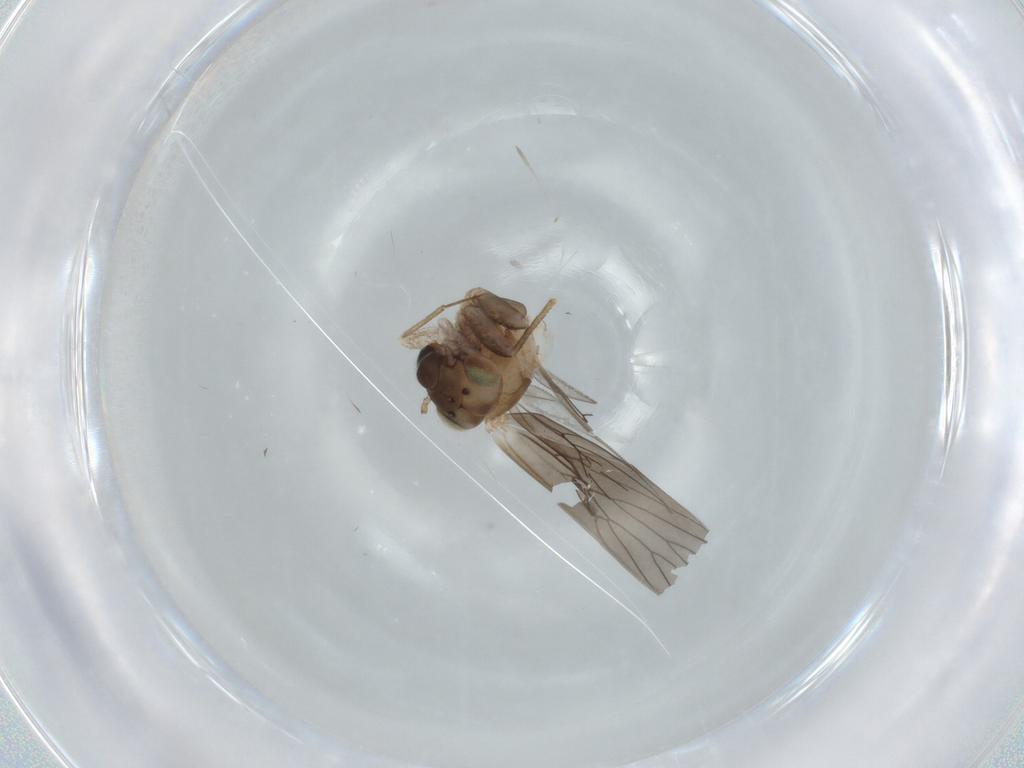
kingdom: Animalia
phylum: Arthropoda
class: Insecta
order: Psocodea
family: Lepidopsocidae
